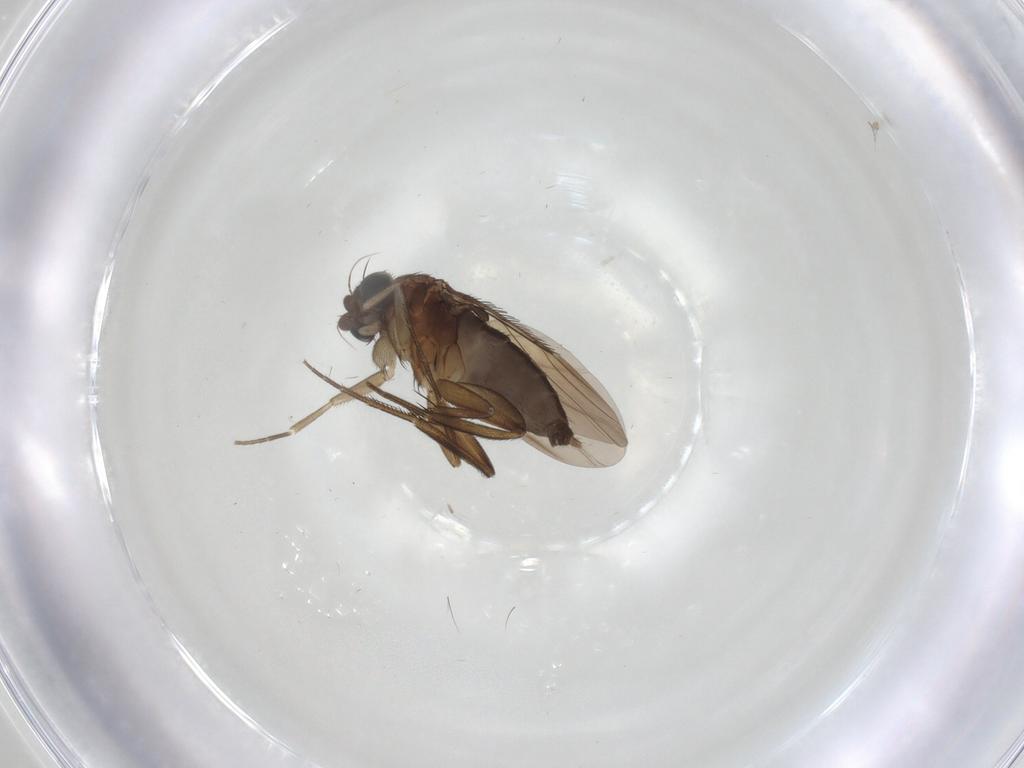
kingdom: Animalia
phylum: Arthropoda
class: Insecta
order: Diptera
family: Phoridae
